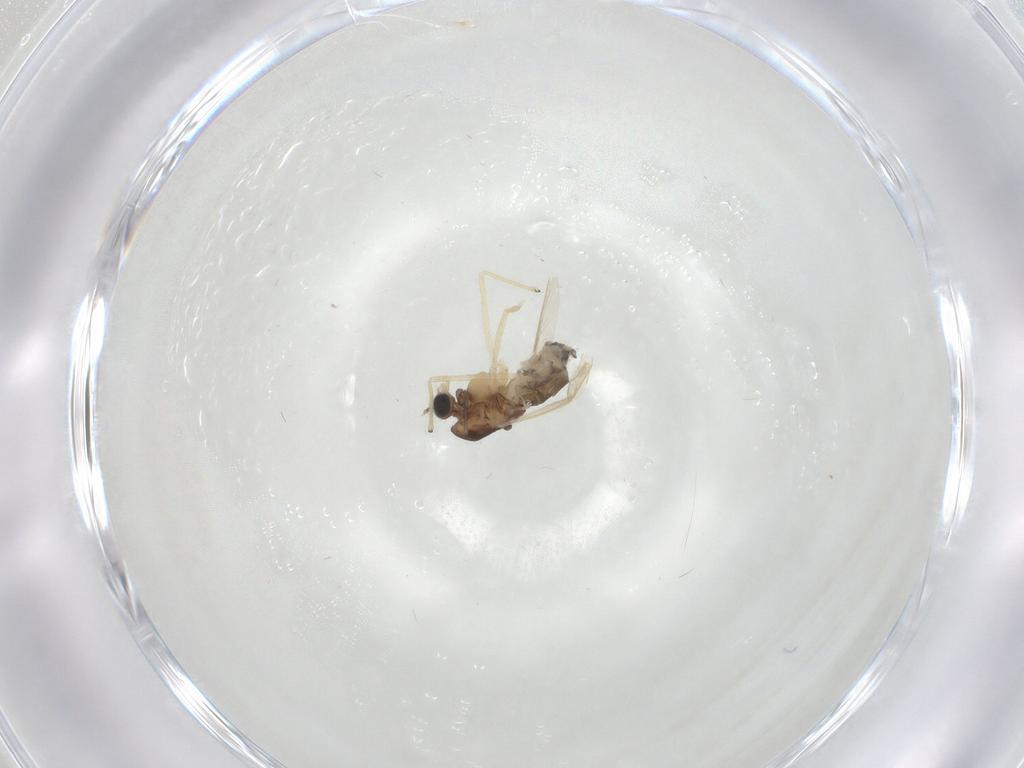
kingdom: Animalia
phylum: Arthropoda
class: Insecta
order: Diptera
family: Chironomidae
